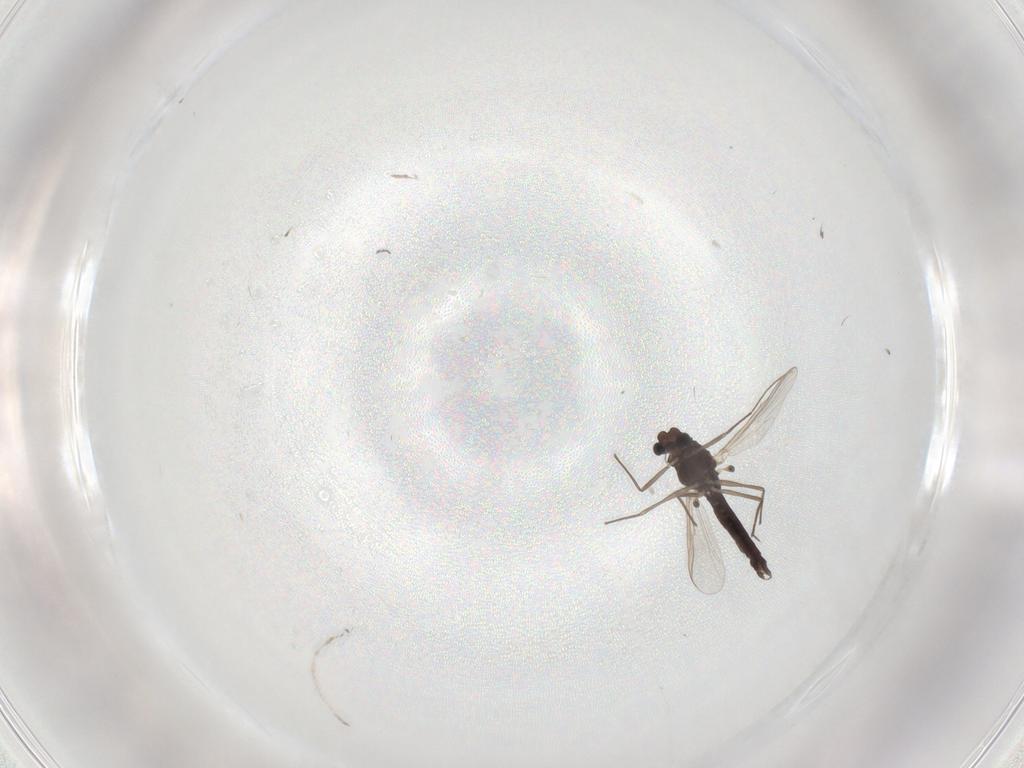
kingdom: Animalia
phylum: Arthropoda
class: Insecta
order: Diptera
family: Chironomidae
